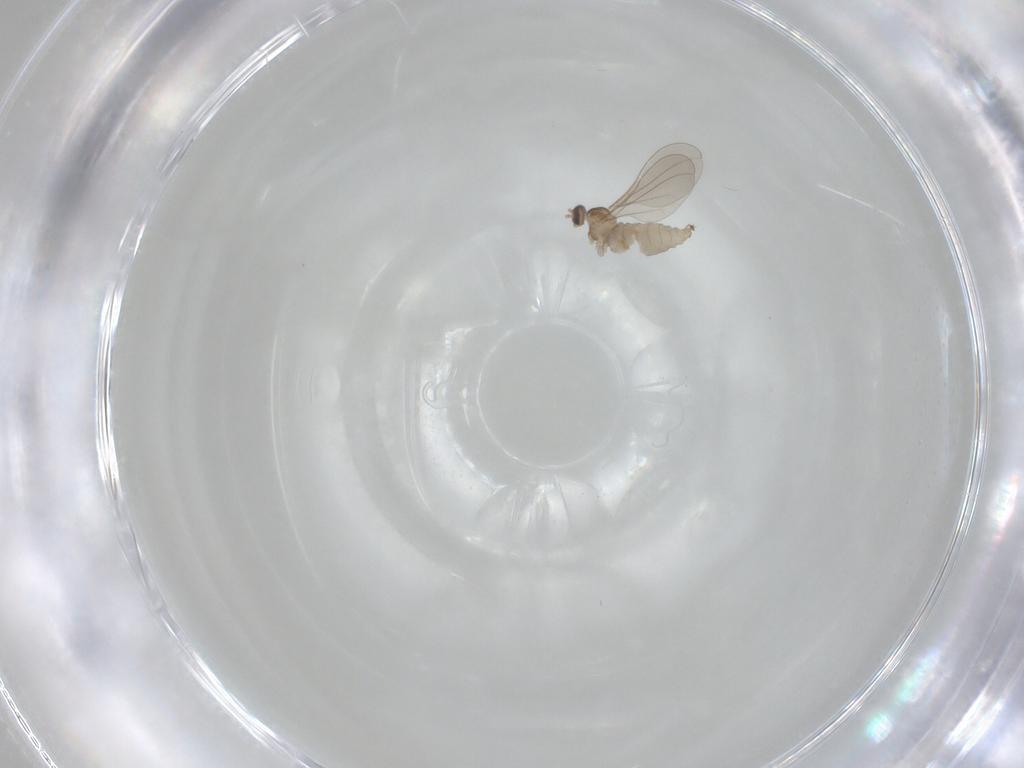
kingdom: Animalia
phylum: Arthropoda
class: Insecta
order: Diptera
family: Cecidomyiidae
